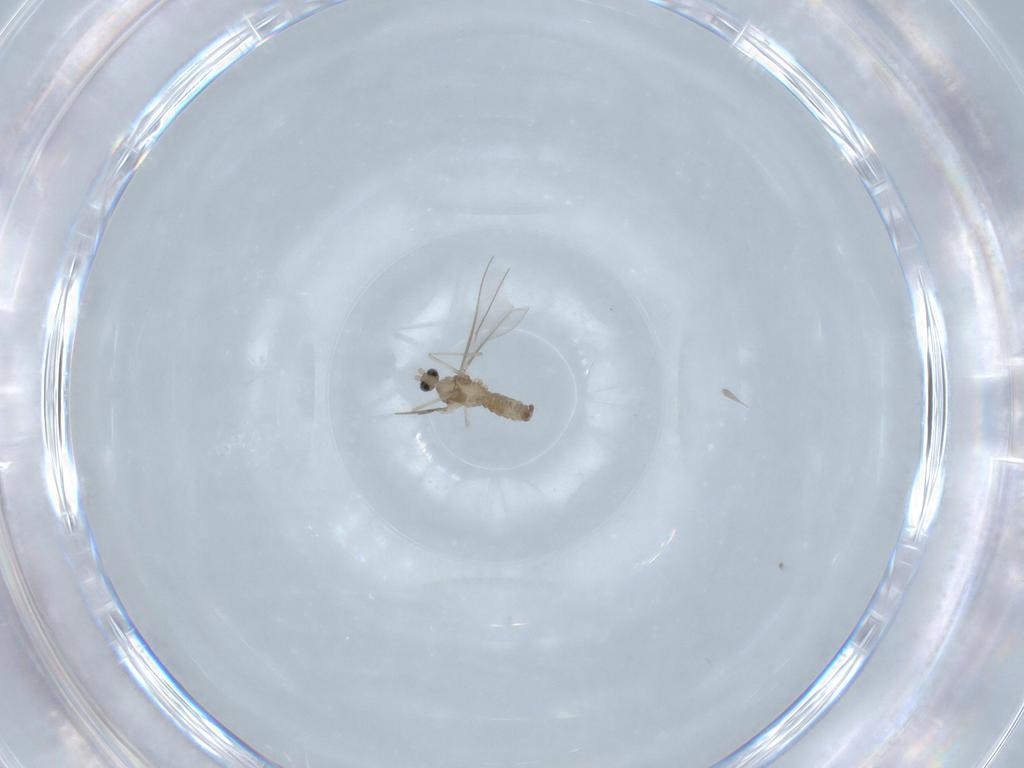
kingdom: Animalia
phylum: Arthropoda
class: Insecta
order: Diptera
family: Cecidomyiidae
